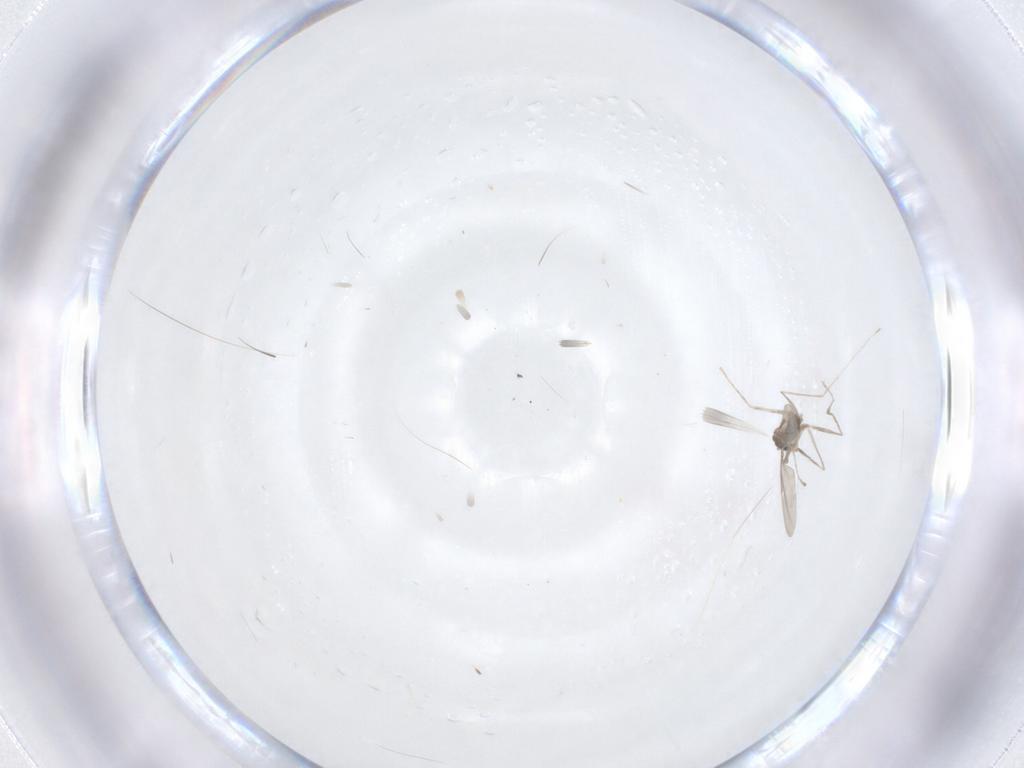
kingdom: Animalia
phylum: Arthropoda
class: Insecta
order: Diptera
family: Cecidomyiidae
